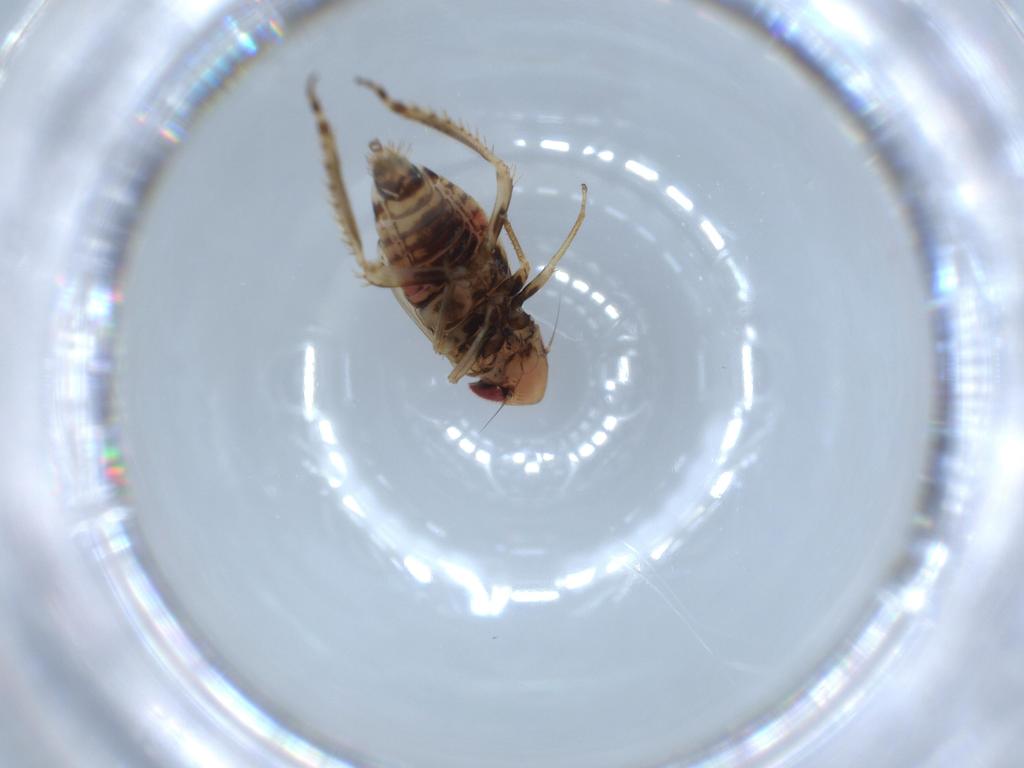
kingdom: Animalia
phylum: Arthropoda
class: Insecta
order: Hemiptera
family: Cicadellidae
